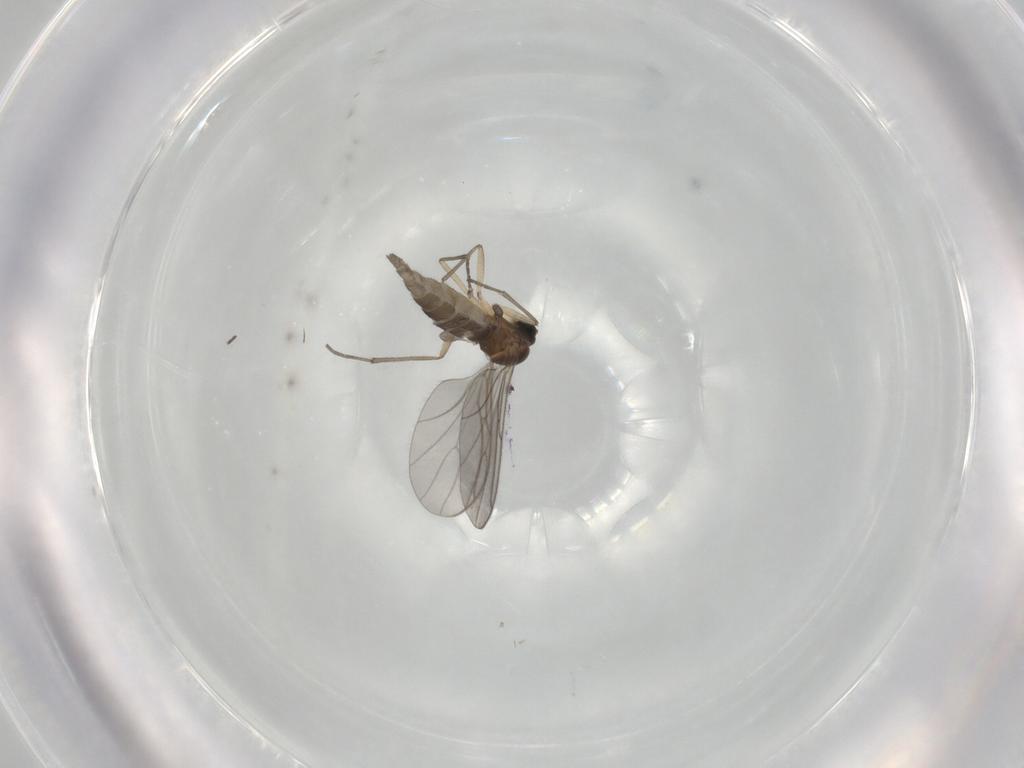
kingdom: Animalia
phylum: Arthropoda
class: Insecta
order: Diptera
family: Sciaridae
